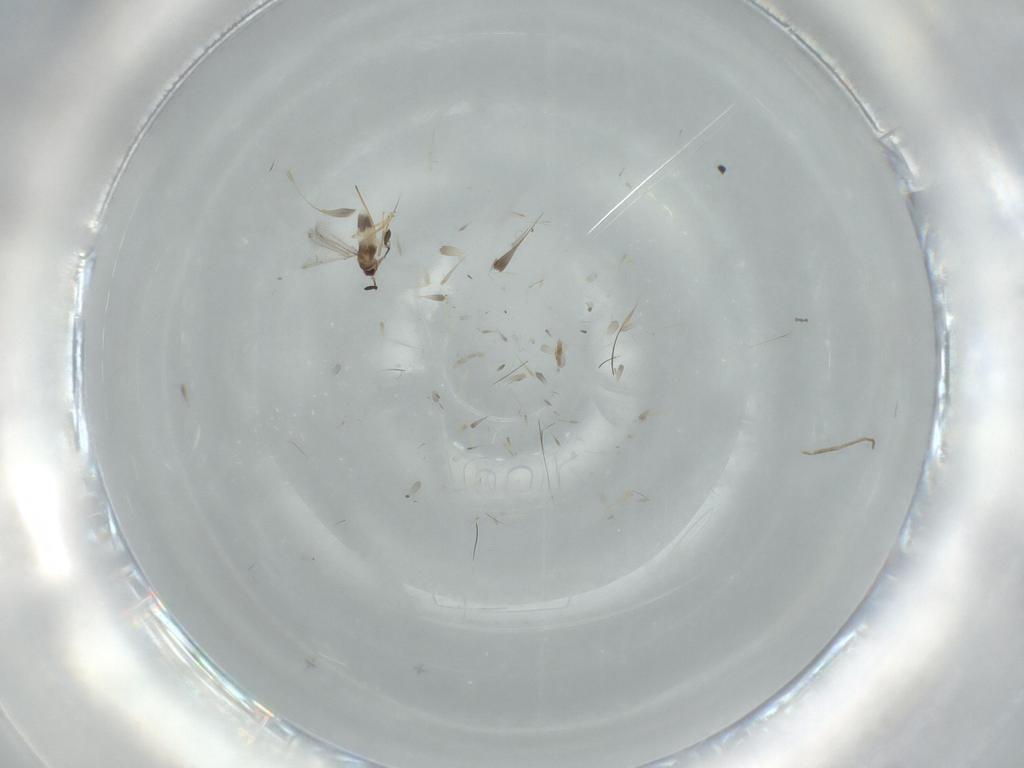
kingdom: Animalia
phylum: Arthropoda
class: Insecta
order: Hymenoptera
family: Mymaridae
